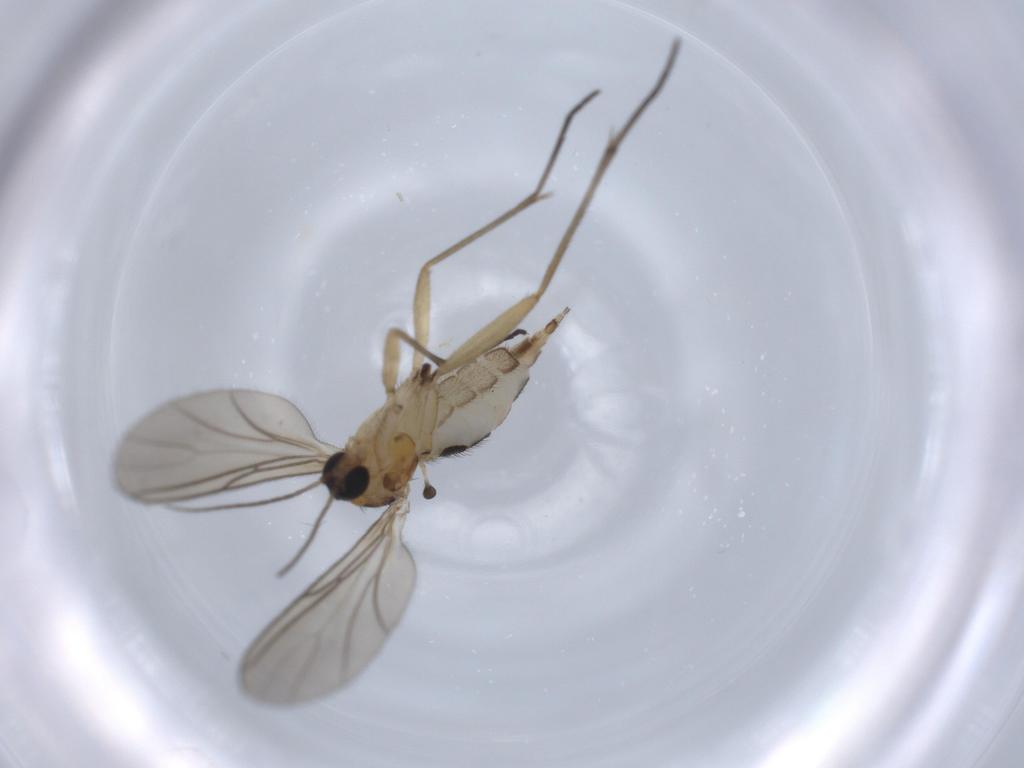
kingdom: Animalia
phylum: Arthropoda
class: Insecta
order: Diptera
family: Sciaridae
